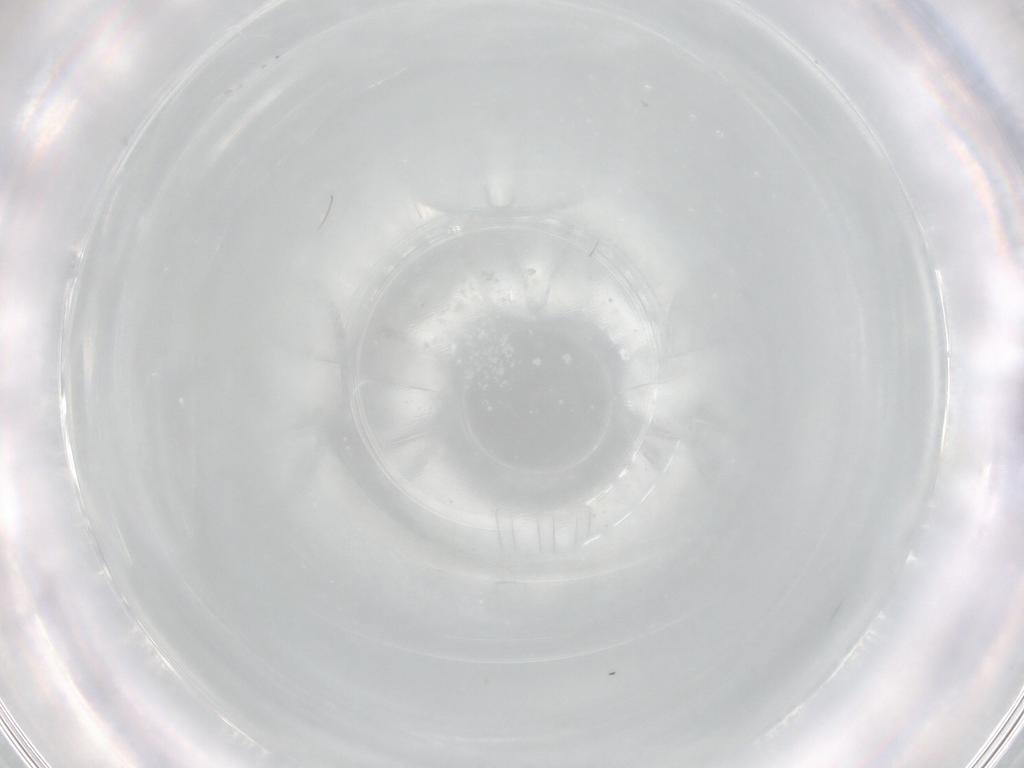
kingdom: Animalia
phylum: Arthropoda
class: Insecta
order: Hymenoptera
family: Vespidae
